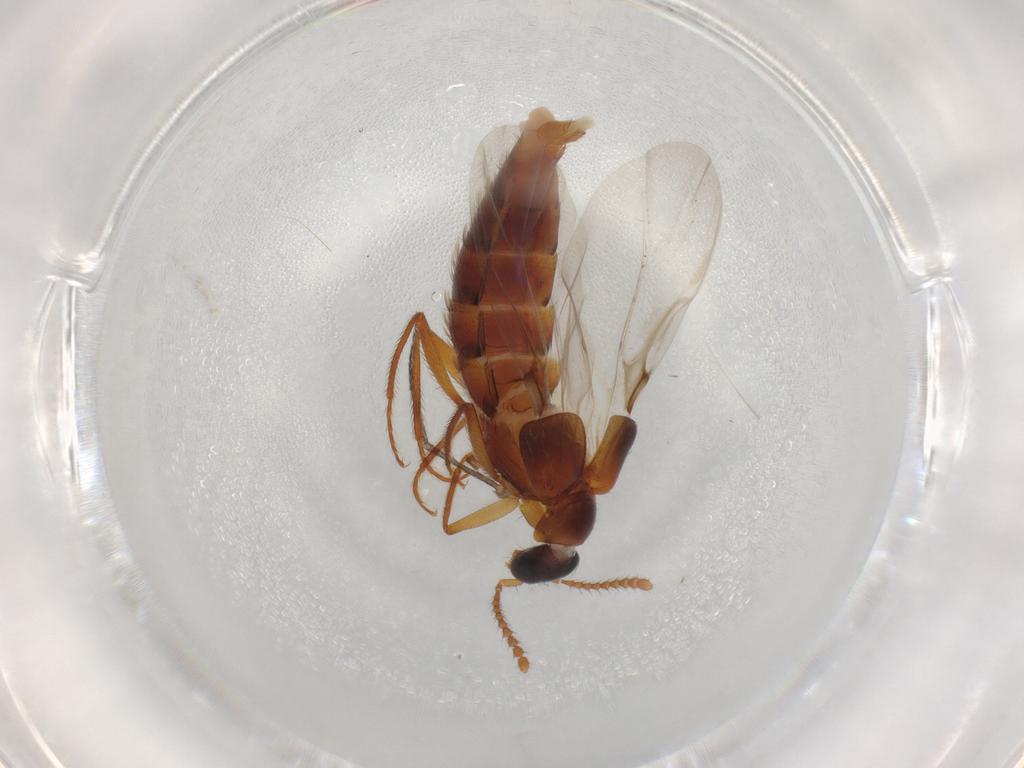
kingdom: Animalia
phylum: Arthropoda
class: Insecta
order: Coleoptera
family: Staphylinidae
